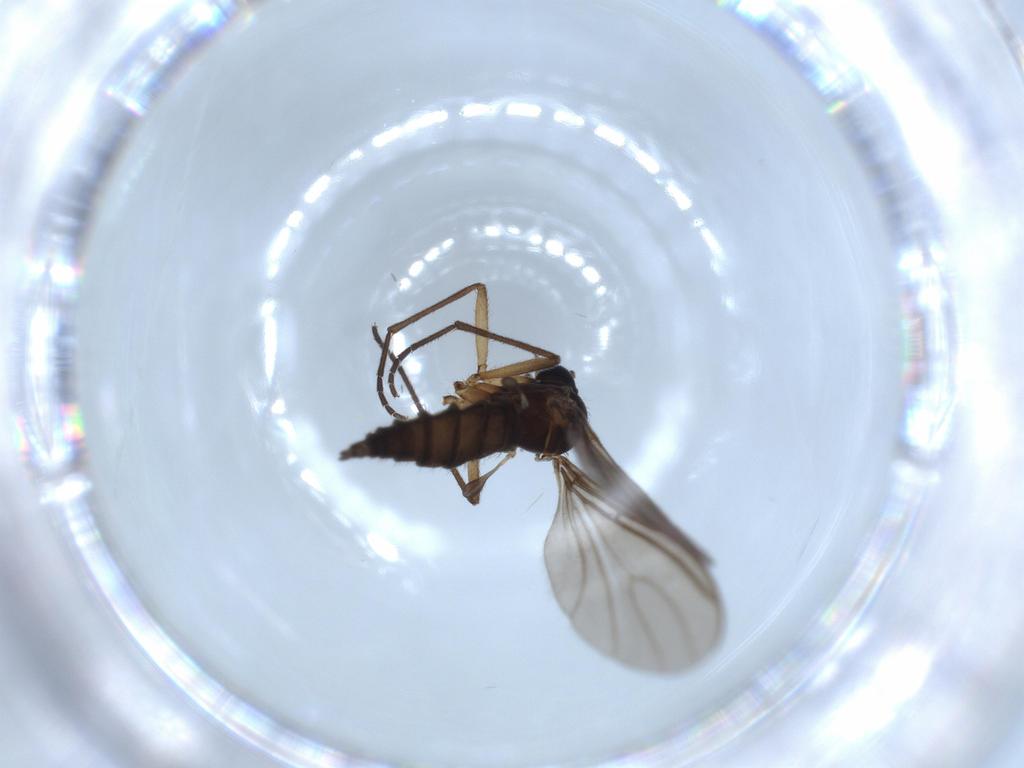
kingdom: Animalia
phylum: Arthropoda
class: Insecta
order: Diptera
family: Sciaridae
